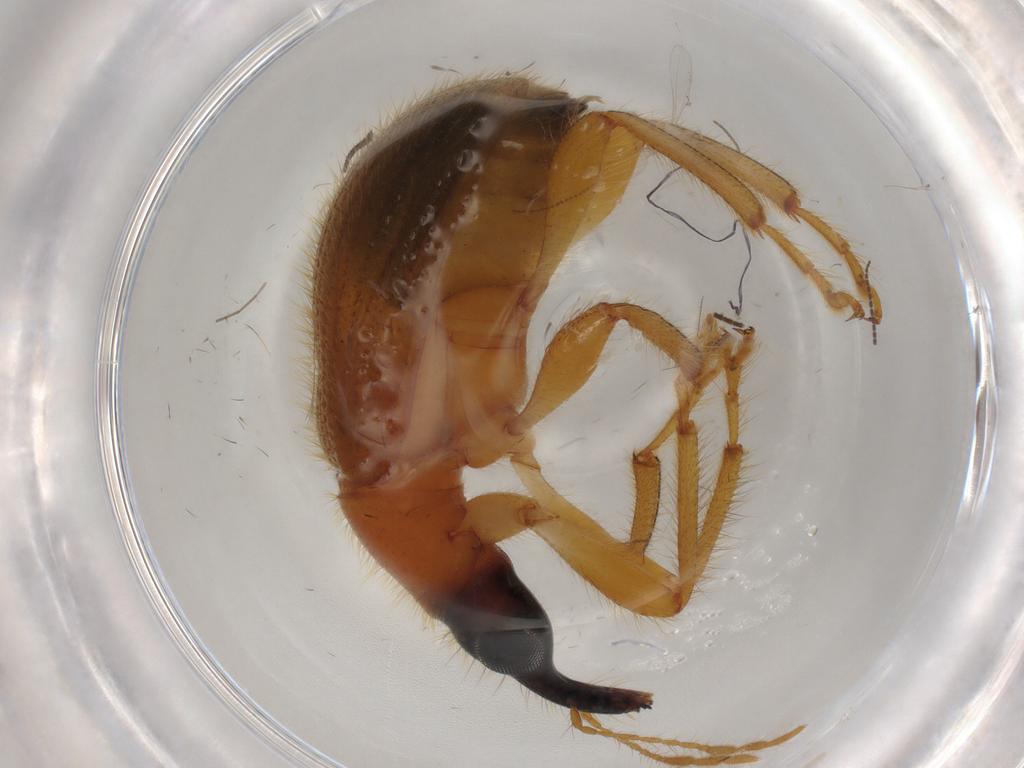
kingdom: Animalia
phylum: Arthropoda
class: Insecta
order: Coleoptera
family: Attelabidae
